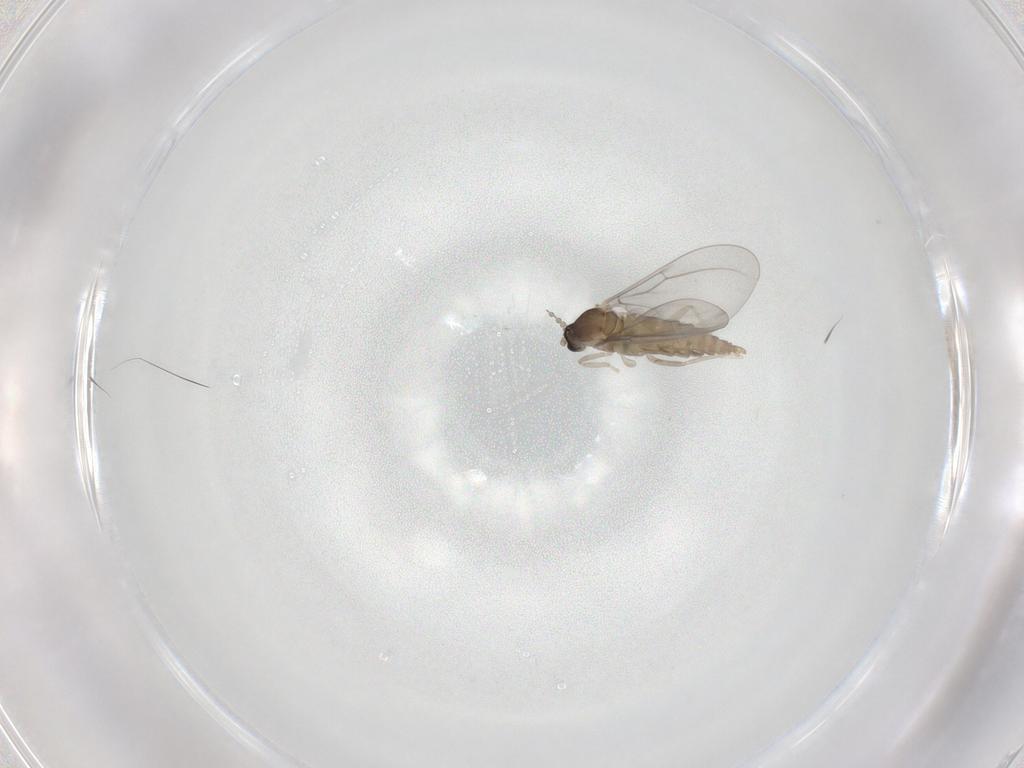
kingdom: Animalia
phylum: Arthropoda
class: Insecta
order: Diptera
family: Cecidomyiidae
